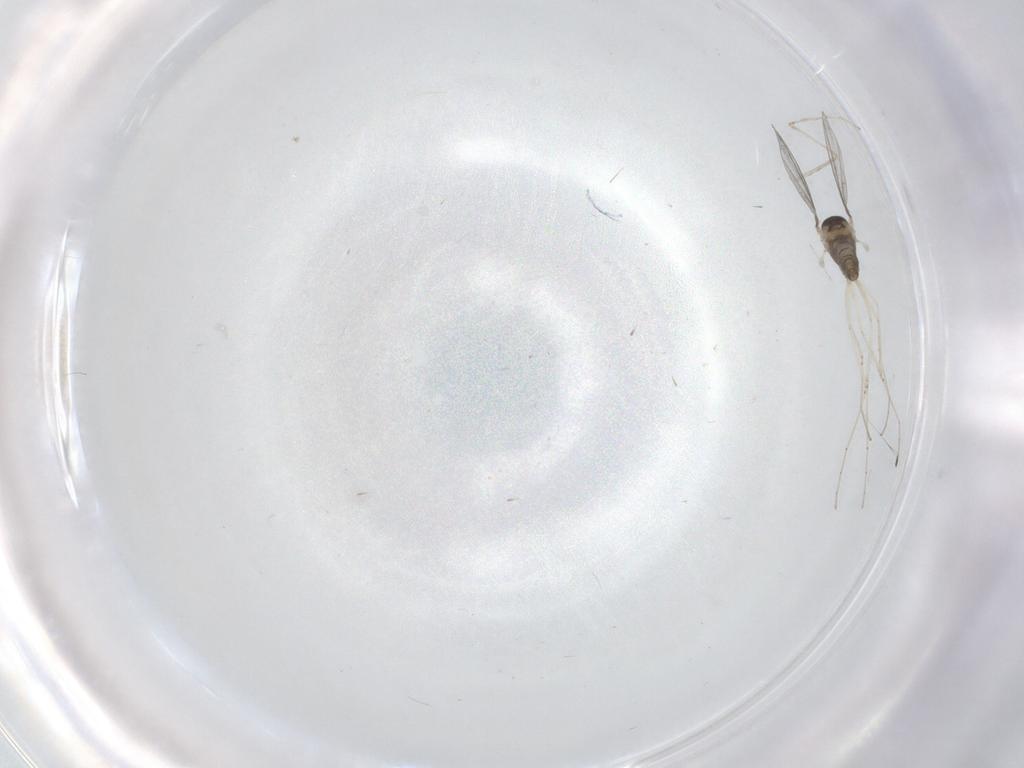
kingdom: Animalia
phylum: Arthropoda
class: Insecta
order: Diptera
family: Cecidomyiidae
